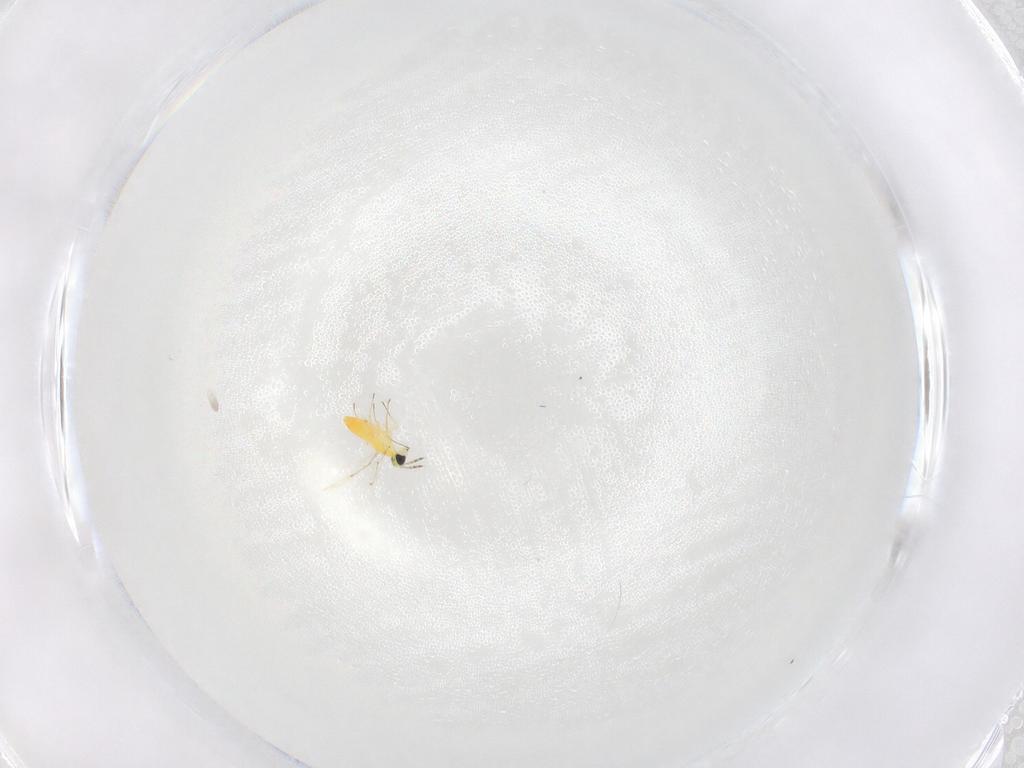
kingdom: Animalia
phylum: Arthropoda
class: Insecta
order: Hymenoptera
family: Trichogrammatidae
